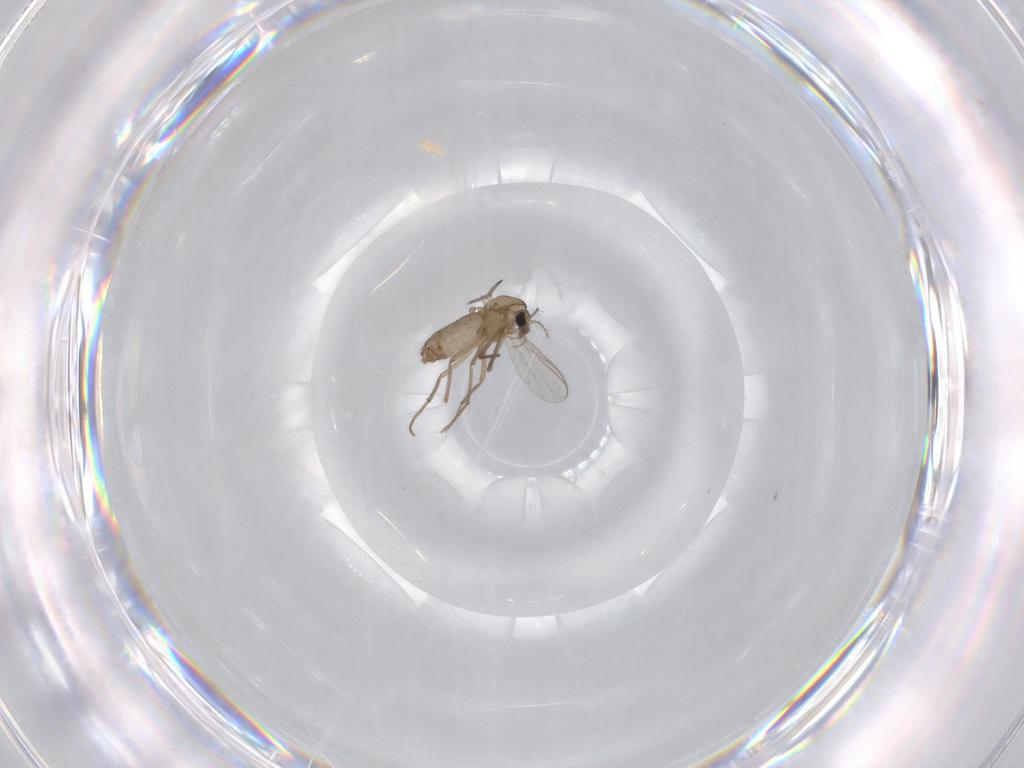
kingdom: Animalia
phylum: Arthropoda
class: Insecta
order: Diptera
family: Chironomidae
